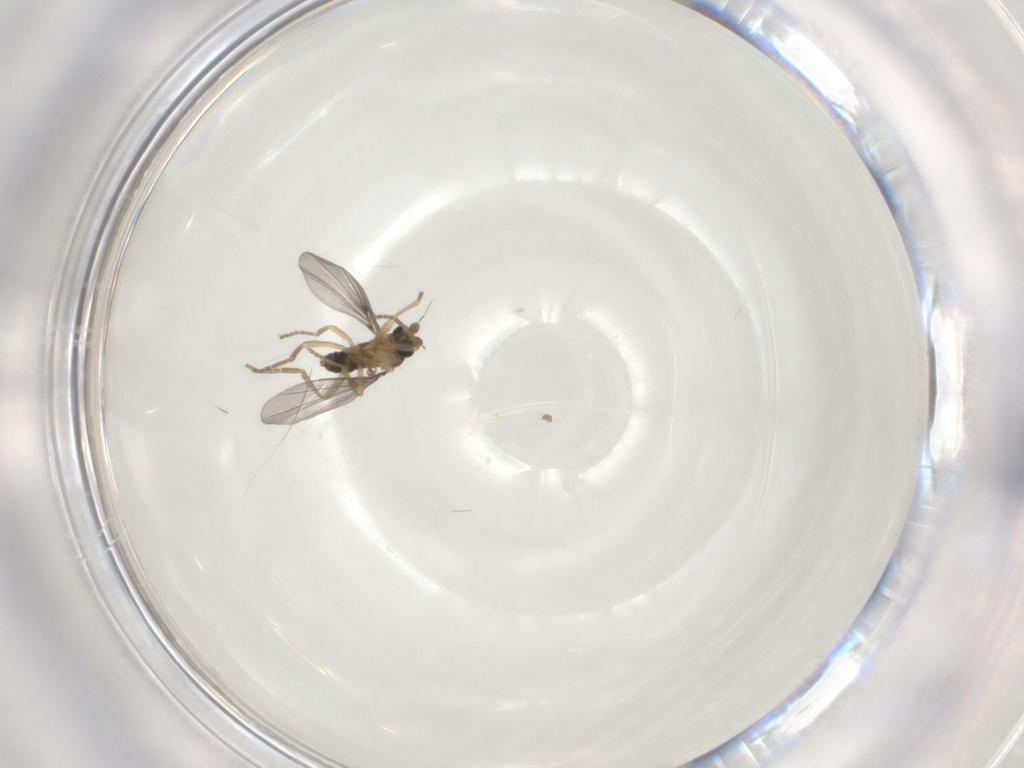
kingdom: Animalia
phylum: Arthropoda
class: Insecta
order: Diptera
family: Phoridae
